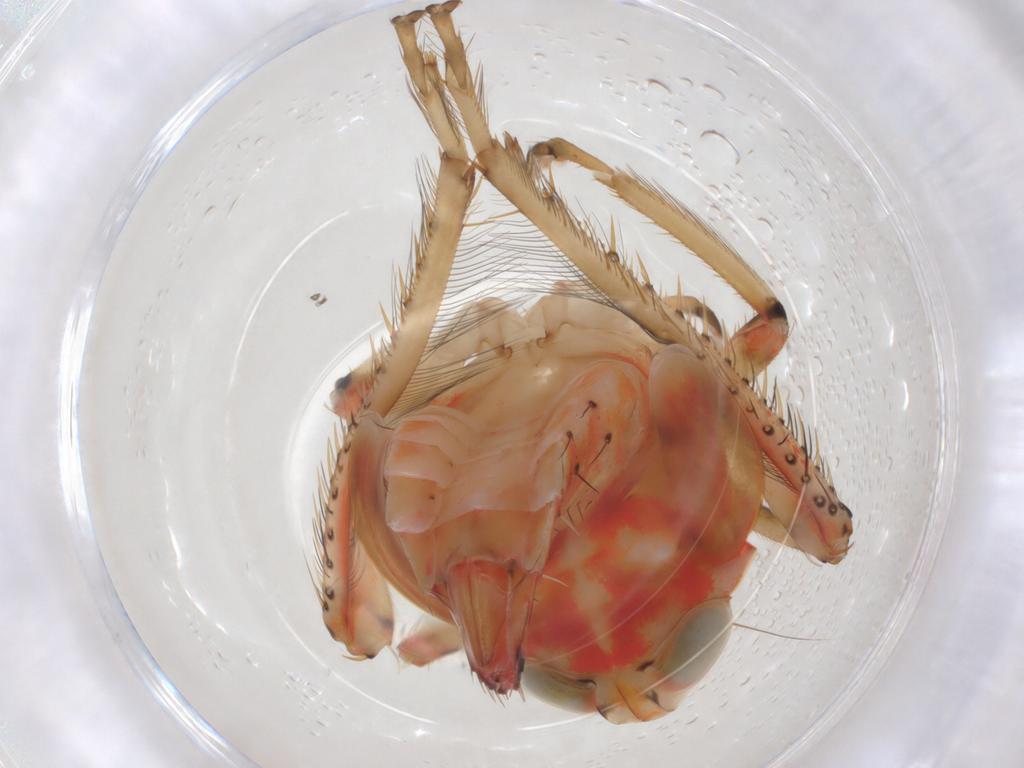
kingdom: Animalia
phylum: Arthropoda
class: Insecta
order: Hemiptera
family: Cicadellidae
